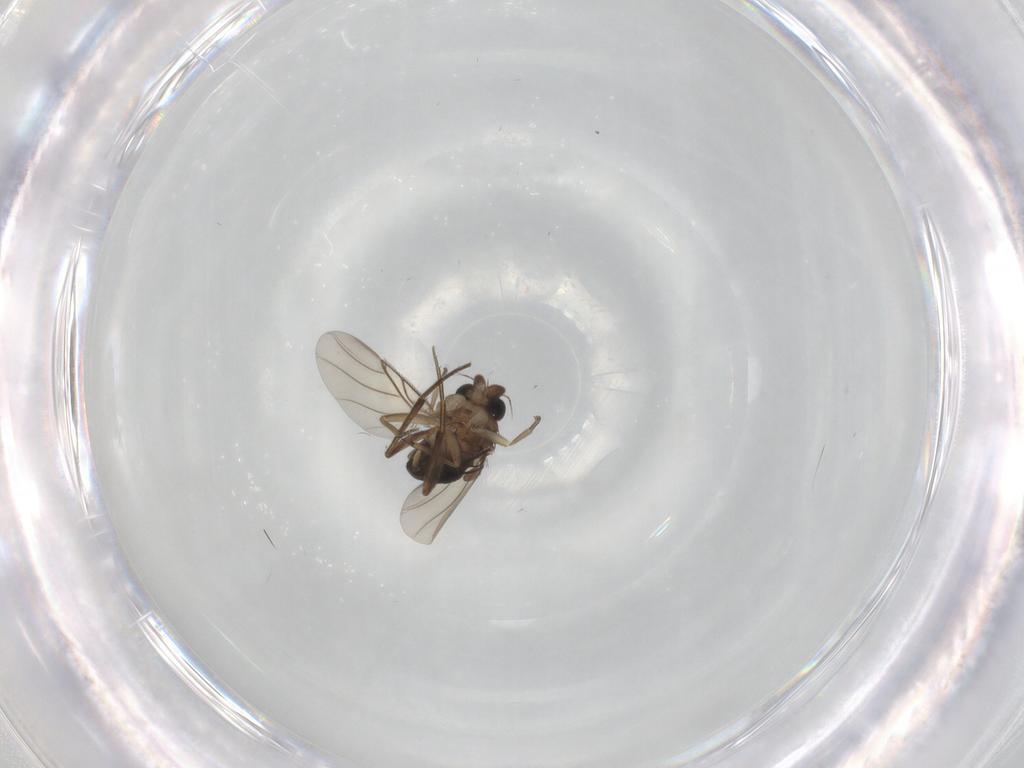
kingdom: Animalia
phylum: Arthropoda
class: Insecta
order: Diptera
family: Phoridae
